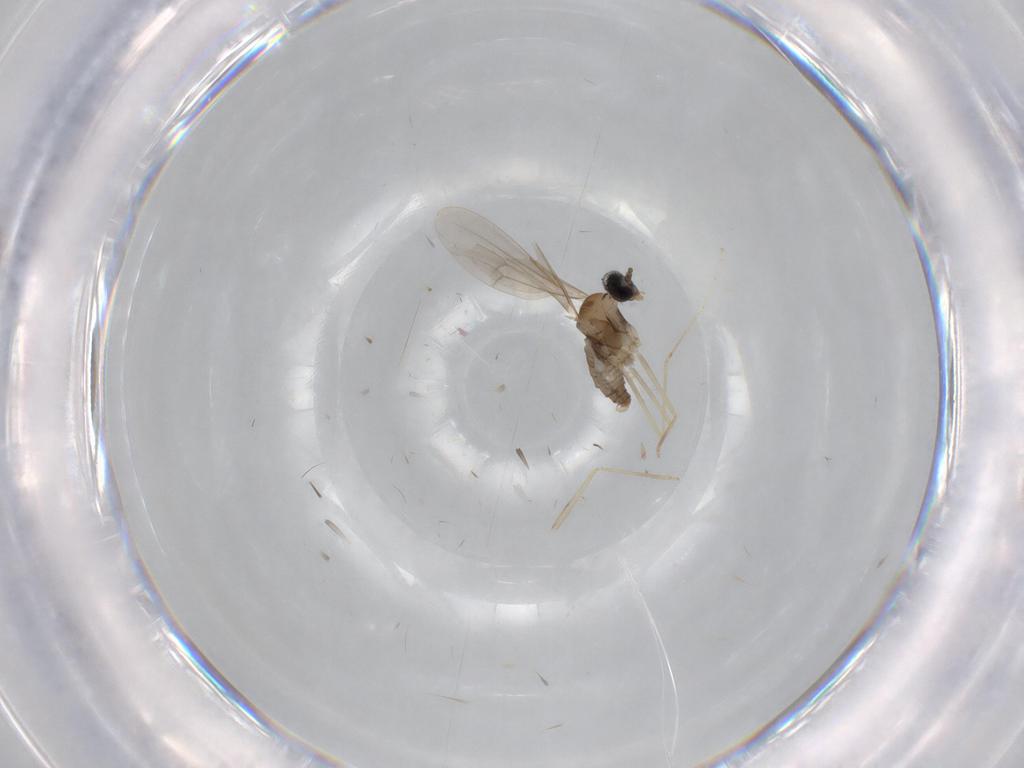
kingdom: Animalia
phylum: Arthropoda
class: Insecta
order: Diptera
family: Cecidomyiidae
